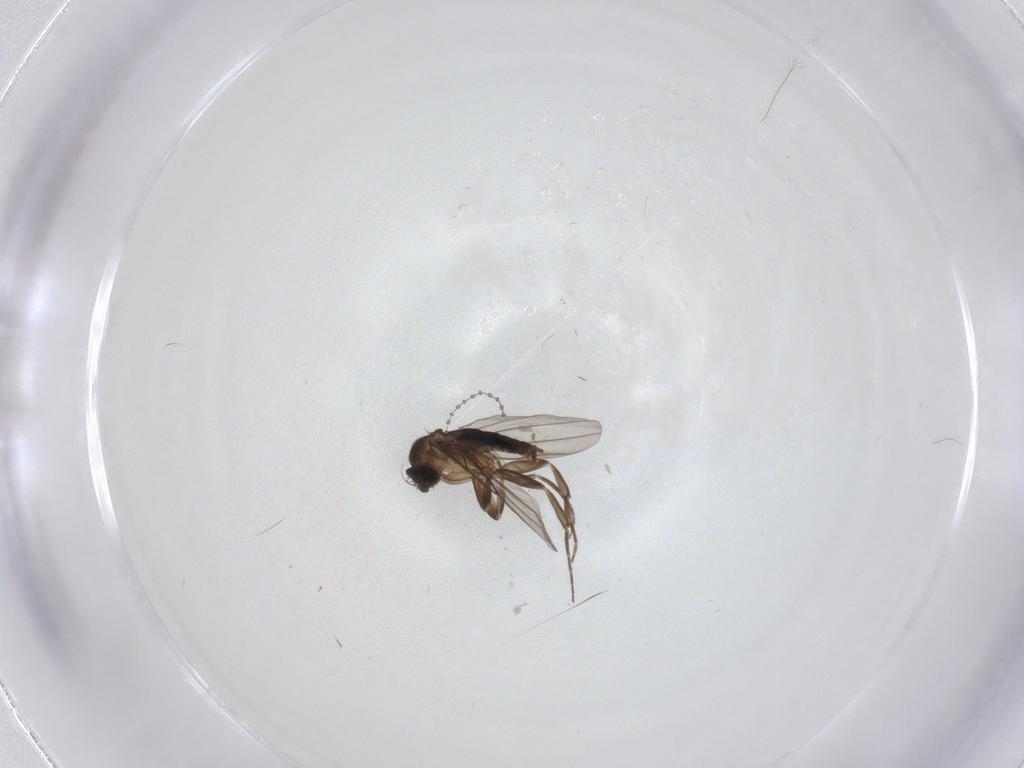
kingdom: Animalia
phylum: Arthropoda
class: Insecta
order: Diptera
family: Cecidomyiidae
